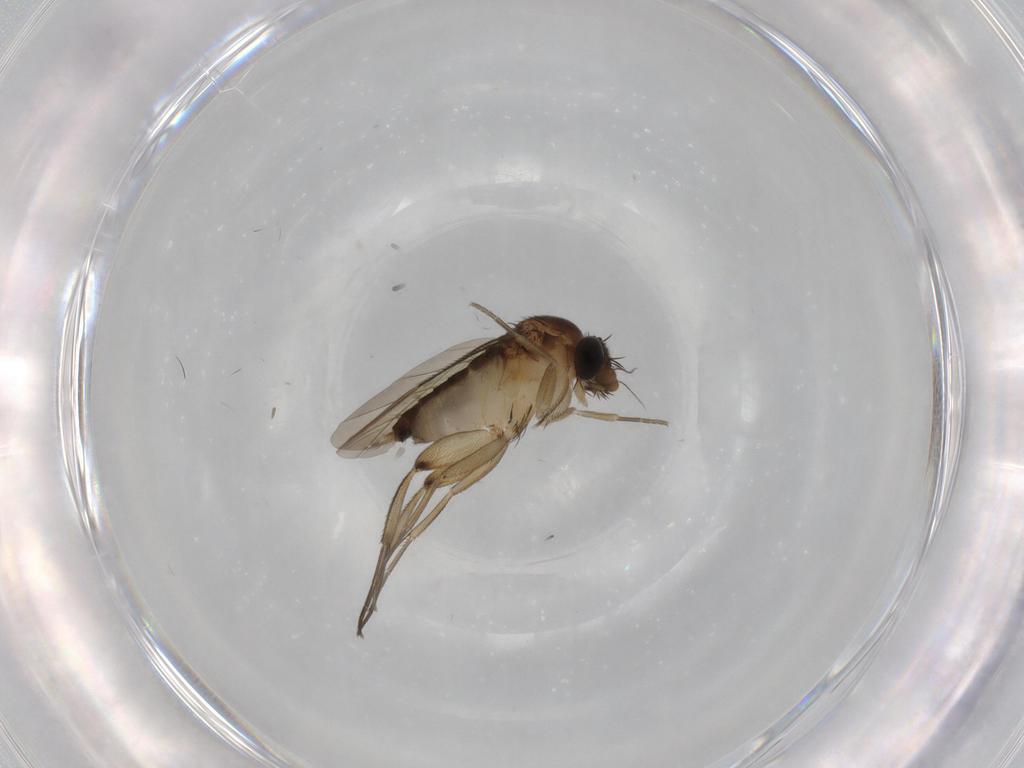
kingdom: Animalia
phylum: Arthropoda
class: Insecta
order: Diptera
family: Phoridae
